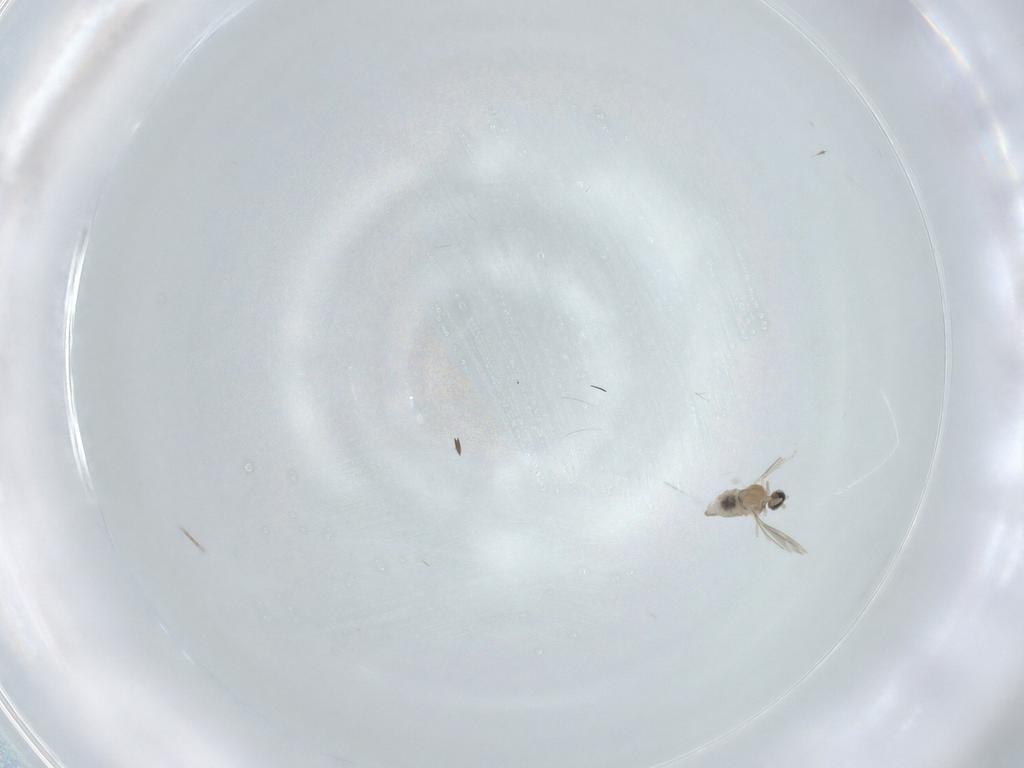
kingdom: Animalia
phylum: Arthropoda
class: Insecta
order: Diptera
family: Cecidomyiidae
